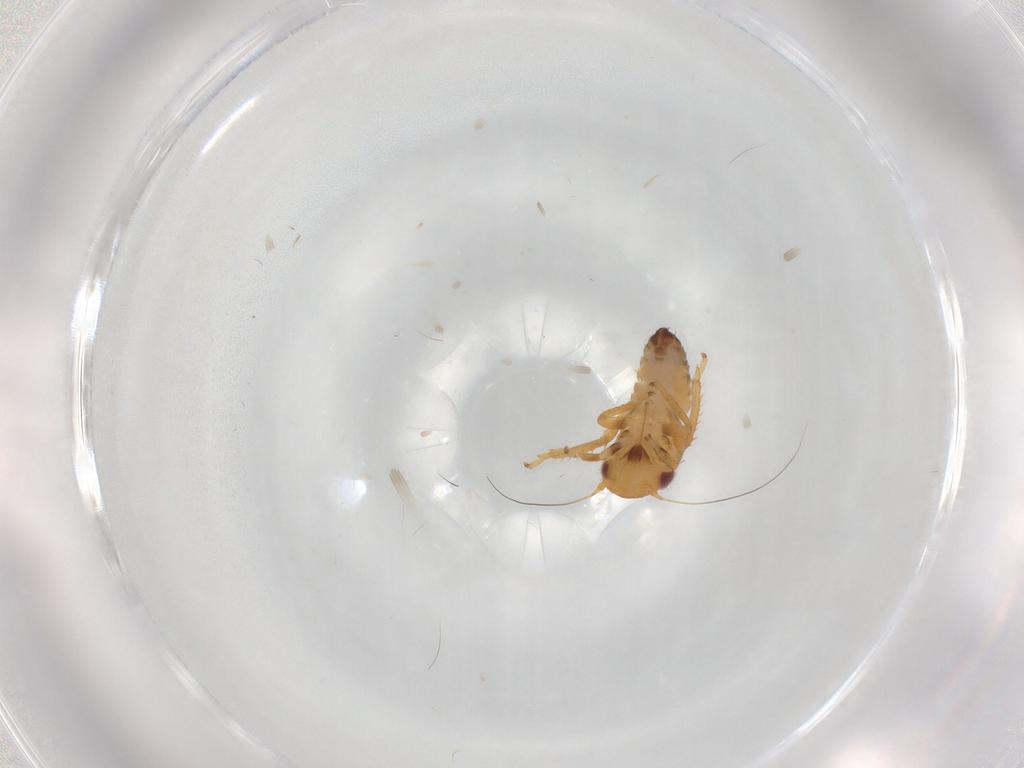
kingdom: Animalia
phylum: Arthropoda
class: Insecta
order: Hemiptera
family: Cicadellidae
